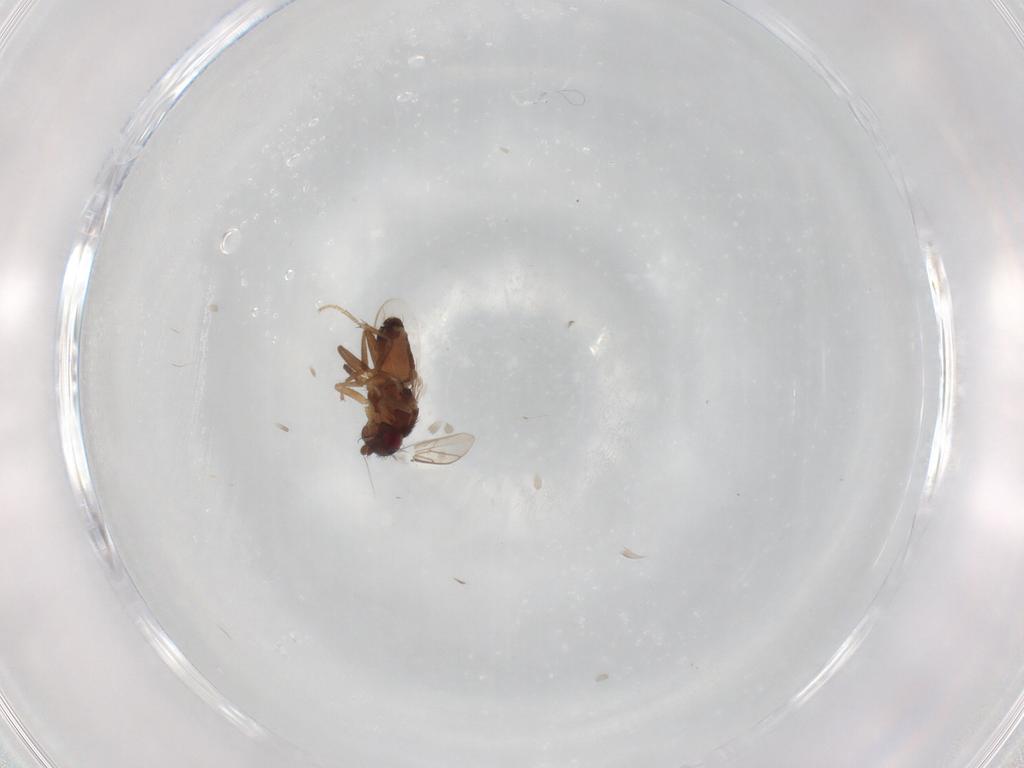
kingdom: Animalia
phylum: Arthropoda
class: Insecta
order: Diptera
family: Sphaeroceridae
